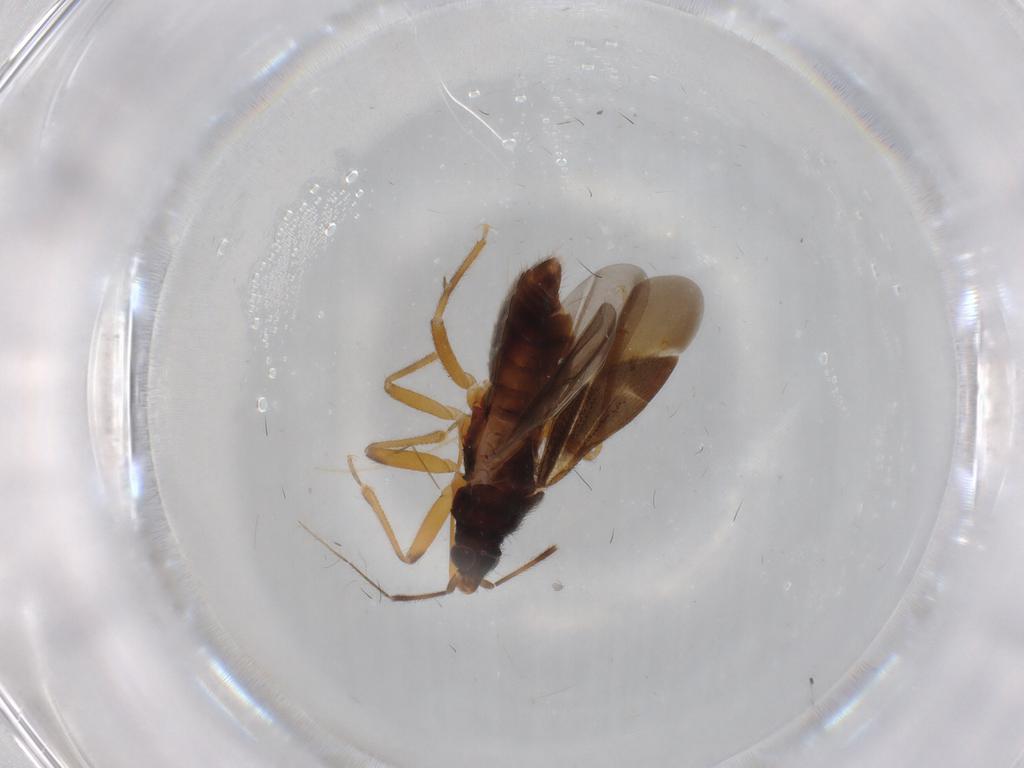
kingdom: Animalia
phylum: Arthropoda
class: Insecta
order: Hemiptera
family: Anthocoridae
